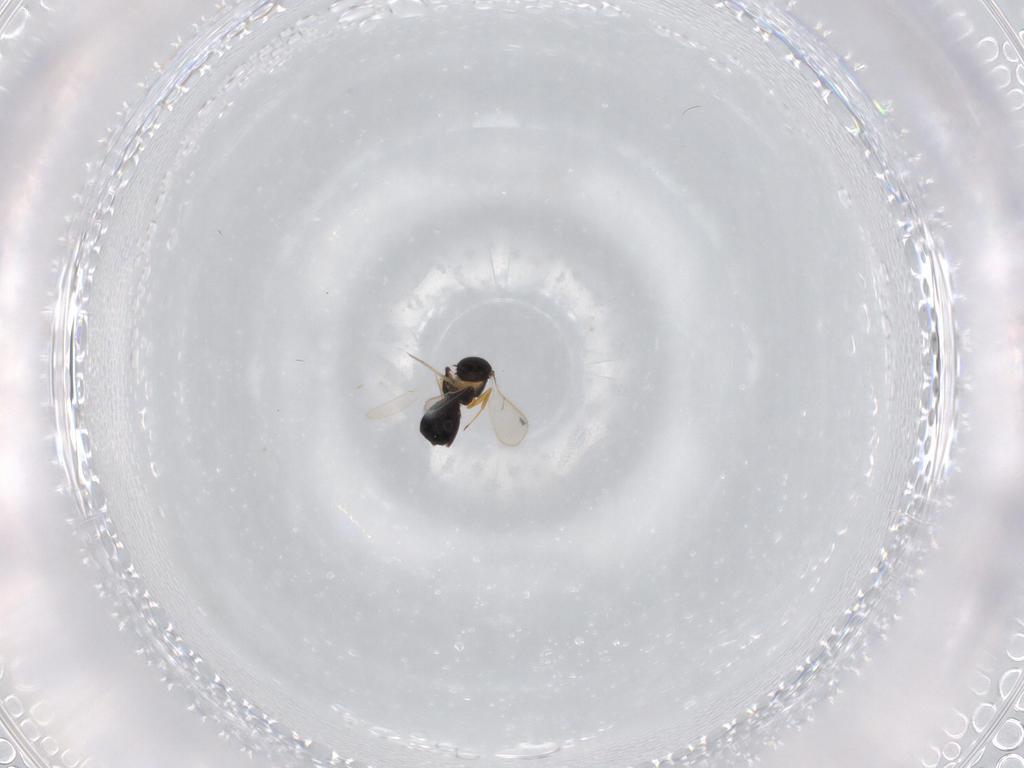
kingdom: Animalia
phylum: Arthropoda
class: Insecta
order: Hymenoptera
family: Scelionidae
